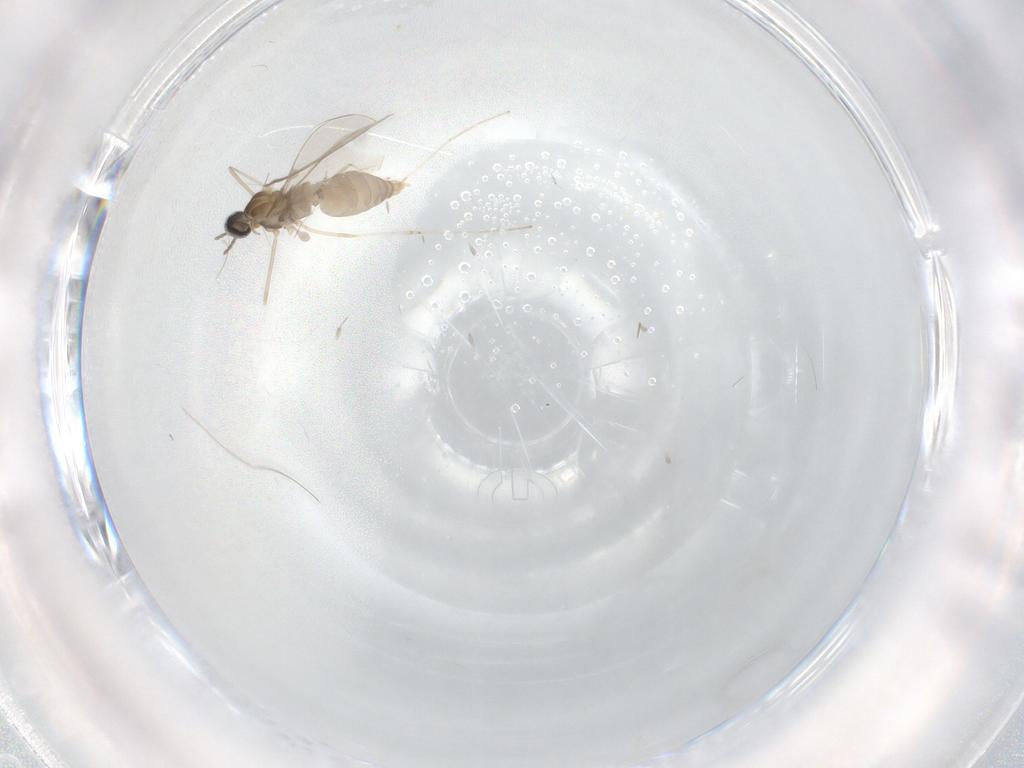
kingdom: Animalia
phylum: Arthropoda
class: Insecta
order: Diptera
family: Cecidomyiidae
